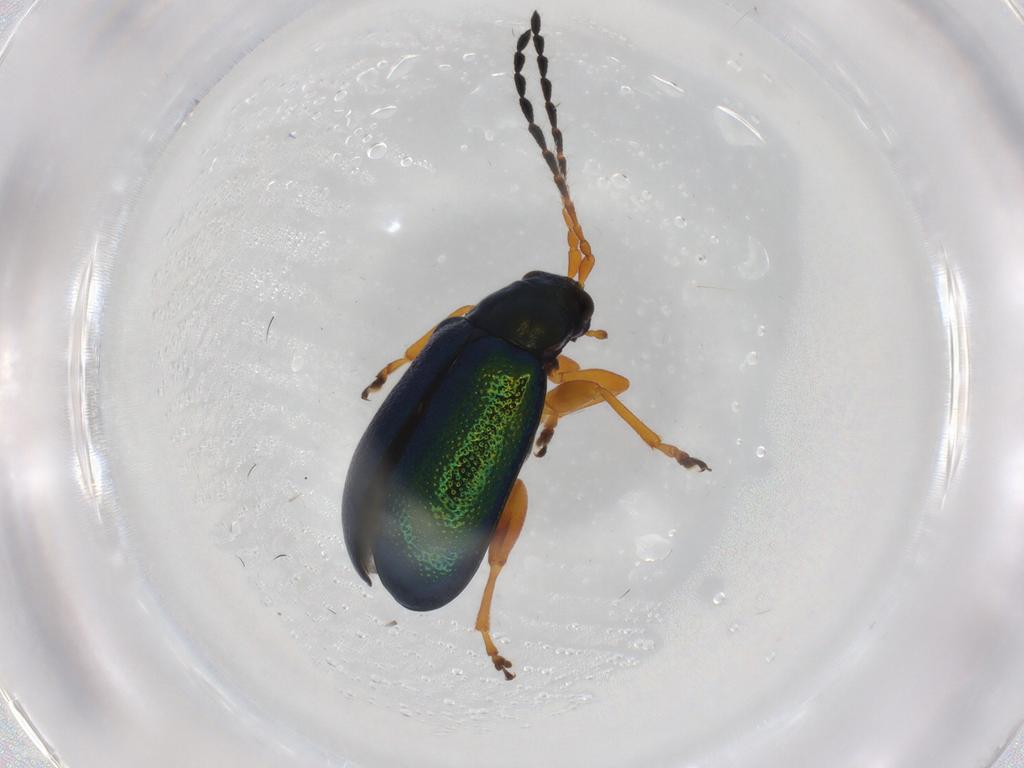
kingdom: Animalia
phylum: Arthropoda
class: Insecta
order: Coleoptera
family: Chrysomelidae
